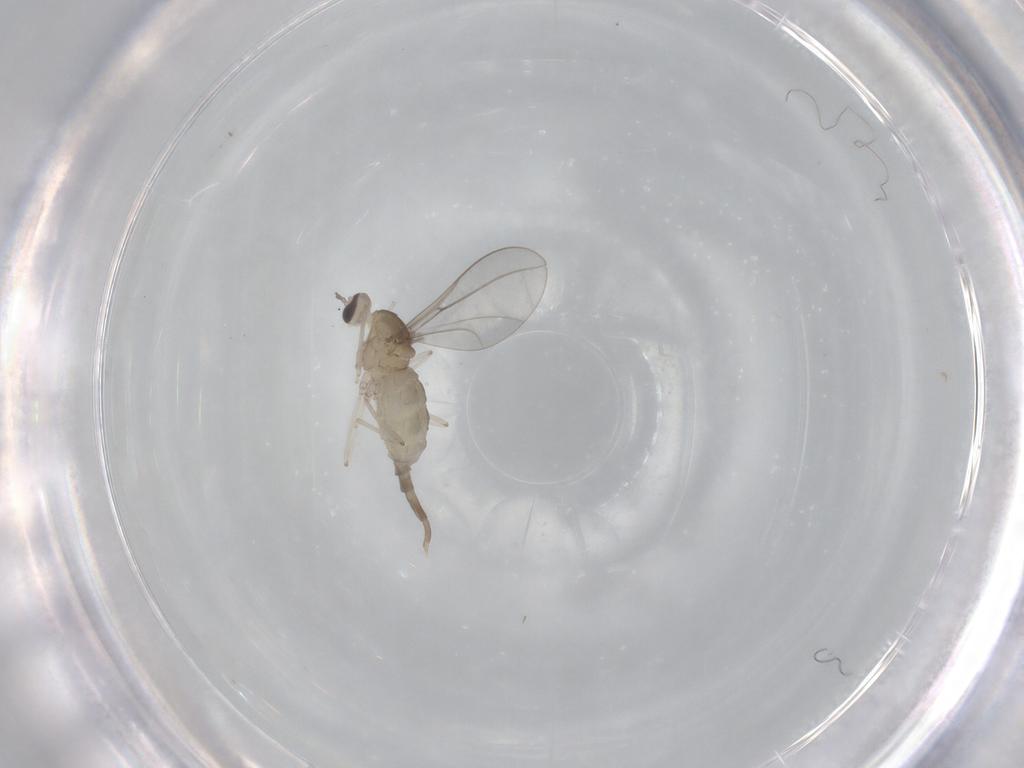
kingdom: Animalia
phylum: Arthropoda
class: Insecta
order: Diptera
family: Cecidomyiidae
